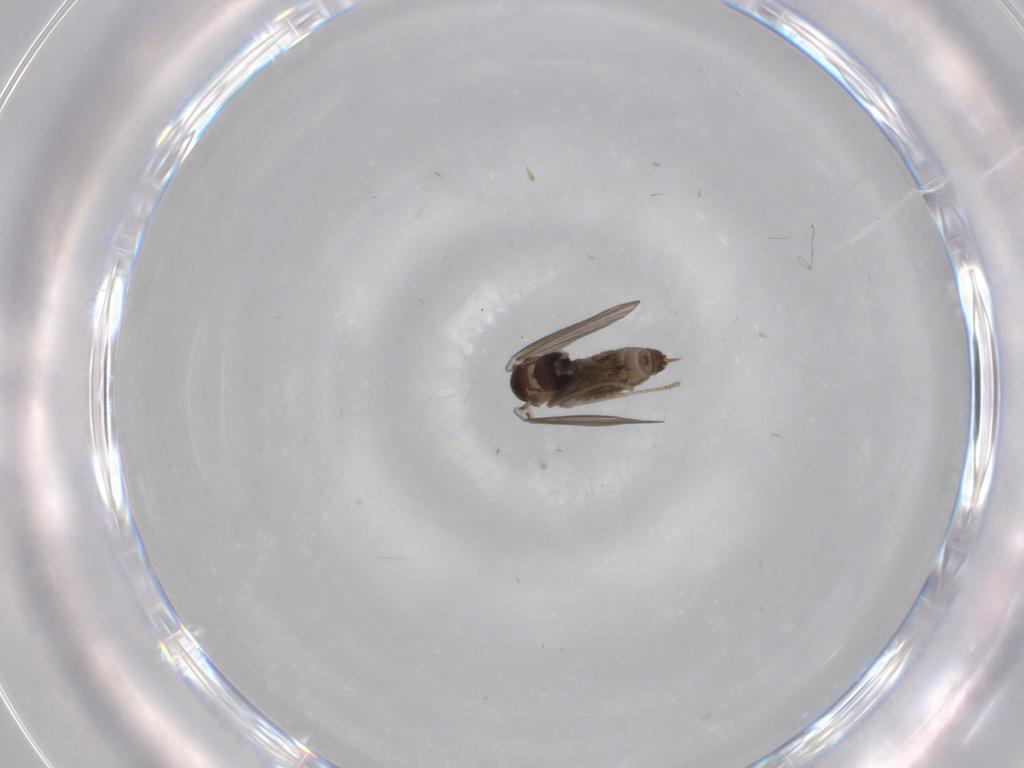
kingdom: Animalia
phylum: Arthropoda
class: Insecta
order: Diptera
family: Psychodidae
